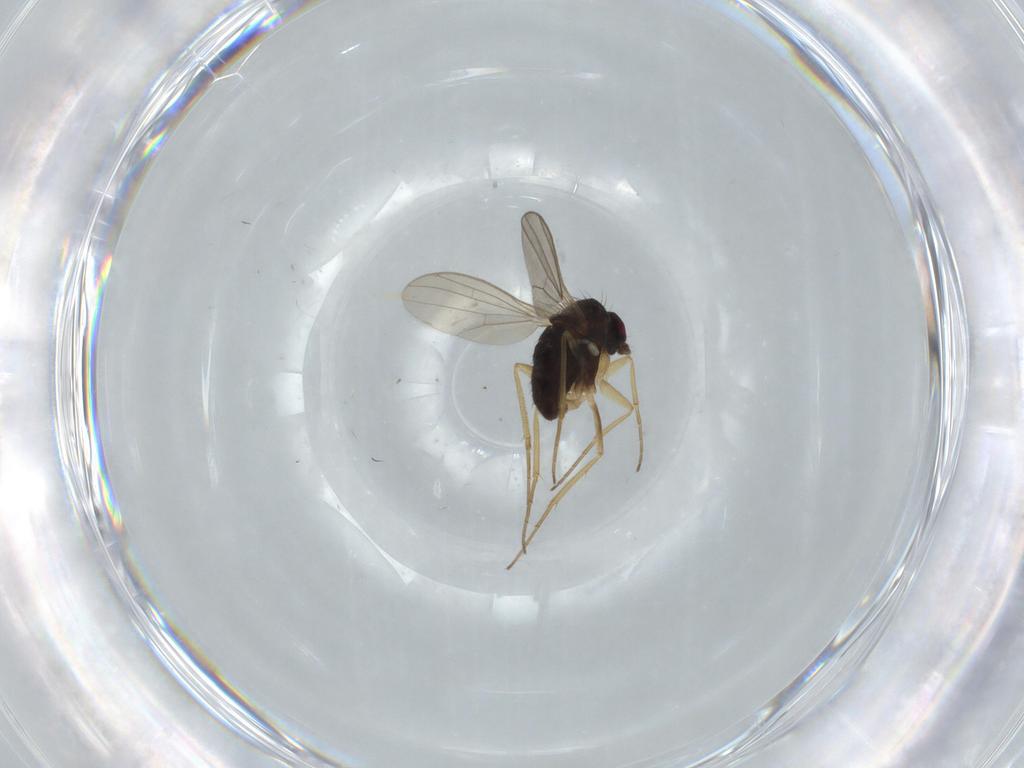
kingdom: Animalia
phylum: Arthropoda
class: Insecta
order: Diptera
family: Dolichopodidae
